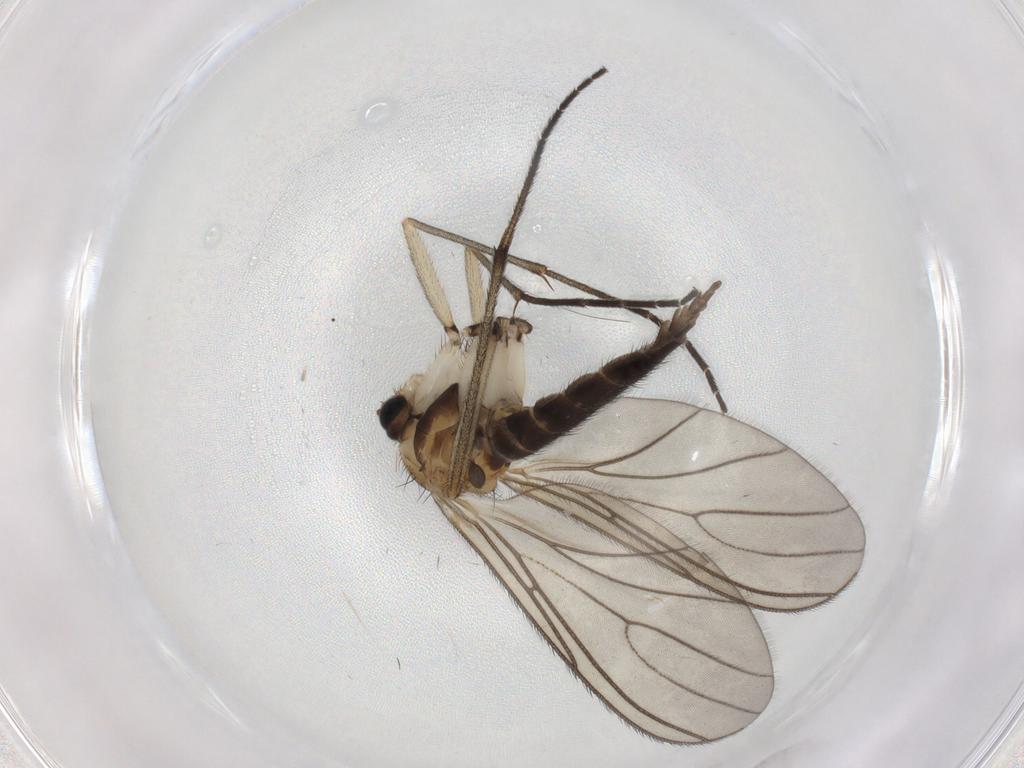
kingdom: Animalia
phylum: Arthropoda
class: Insecta
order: Diptera
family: Sciaridae
